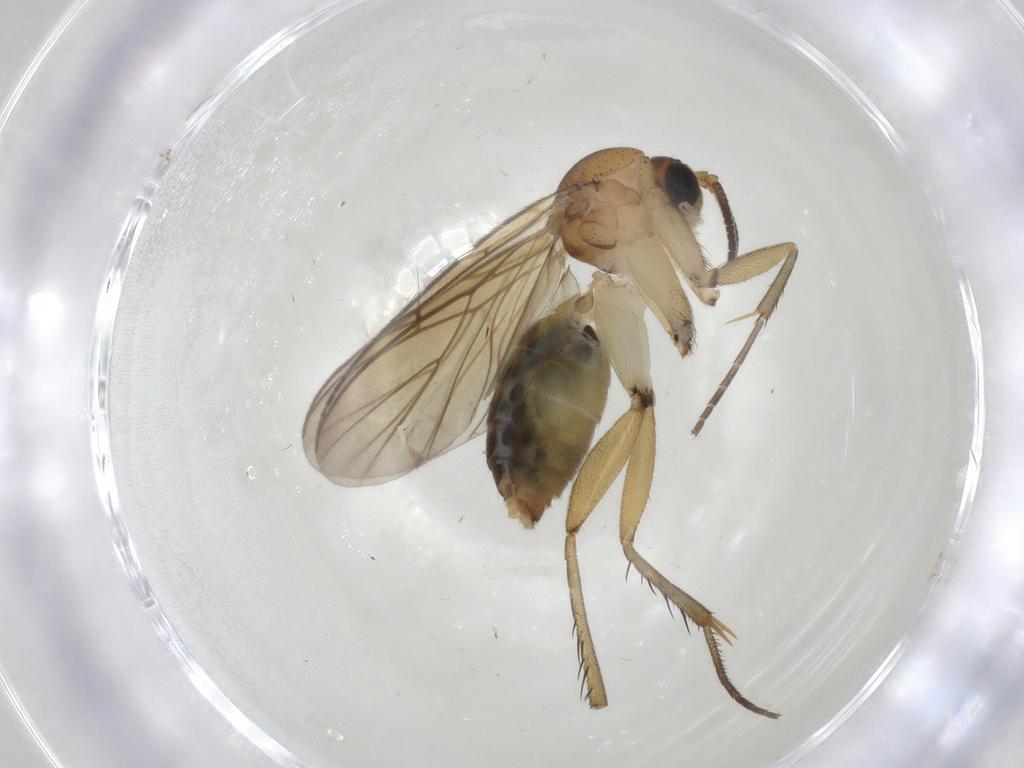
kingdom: Animalia
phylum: Arthropoda
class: Insecta
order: Diptera
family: Mycetophilidae
